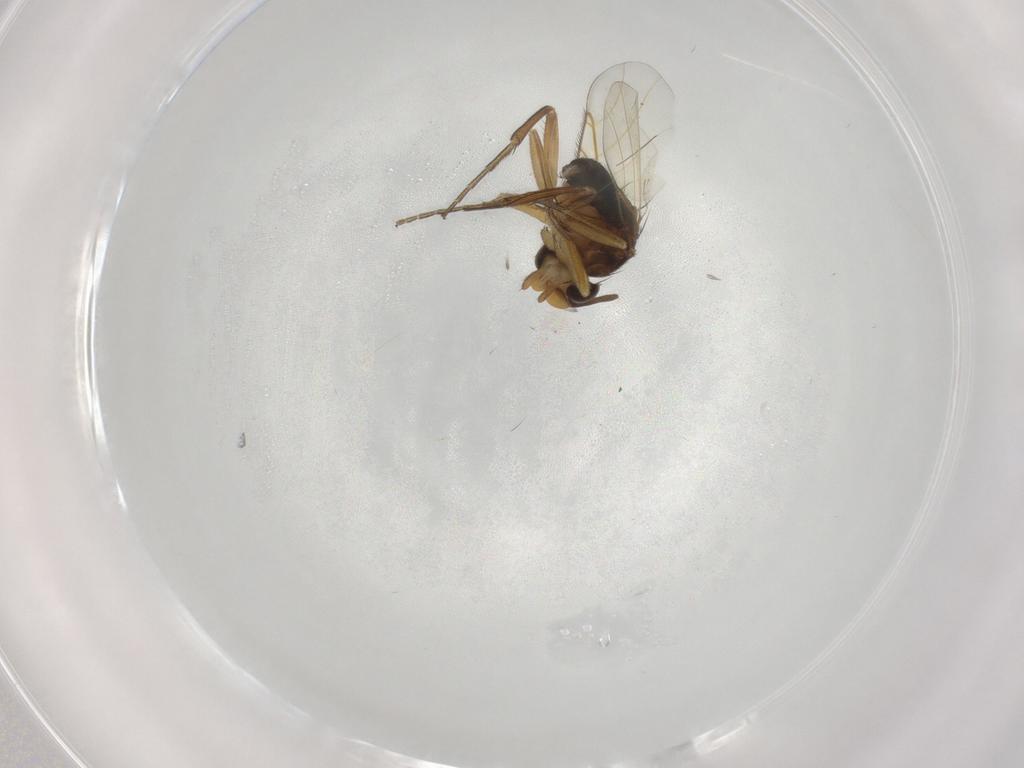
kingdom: Animalia
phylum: Arthropoda
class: Insecta
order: Diptera
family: Phoridae
